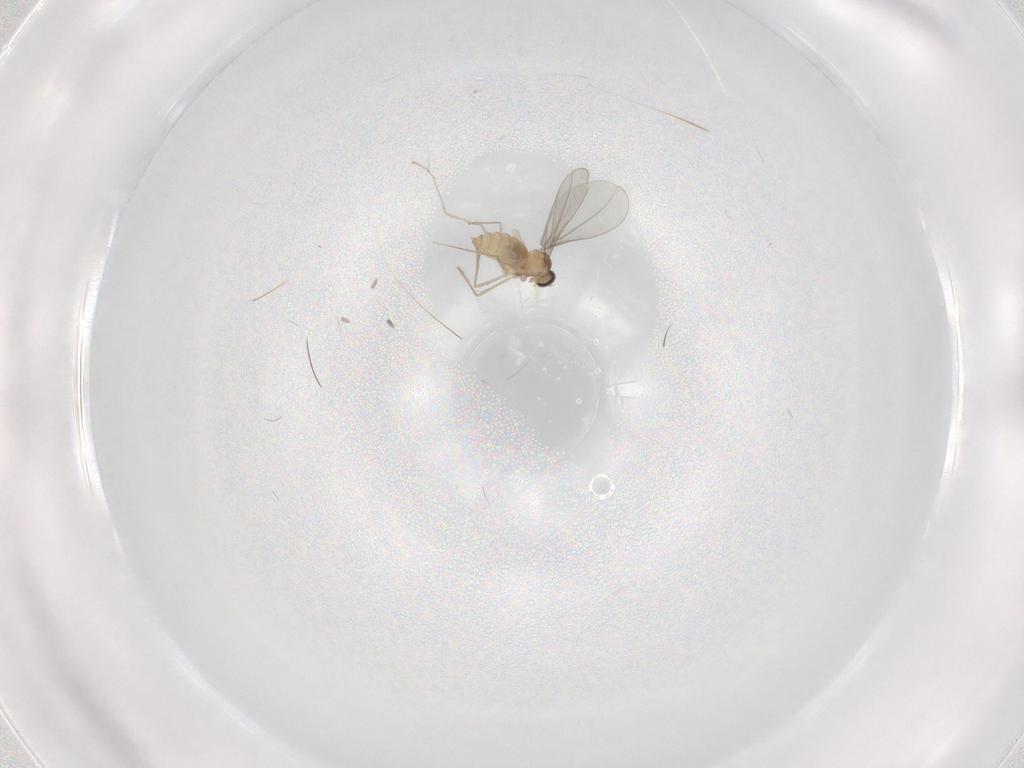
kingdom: Animalia
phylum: Arthropoda
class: Insecta
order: Diptera
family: Cecidomyiidae
